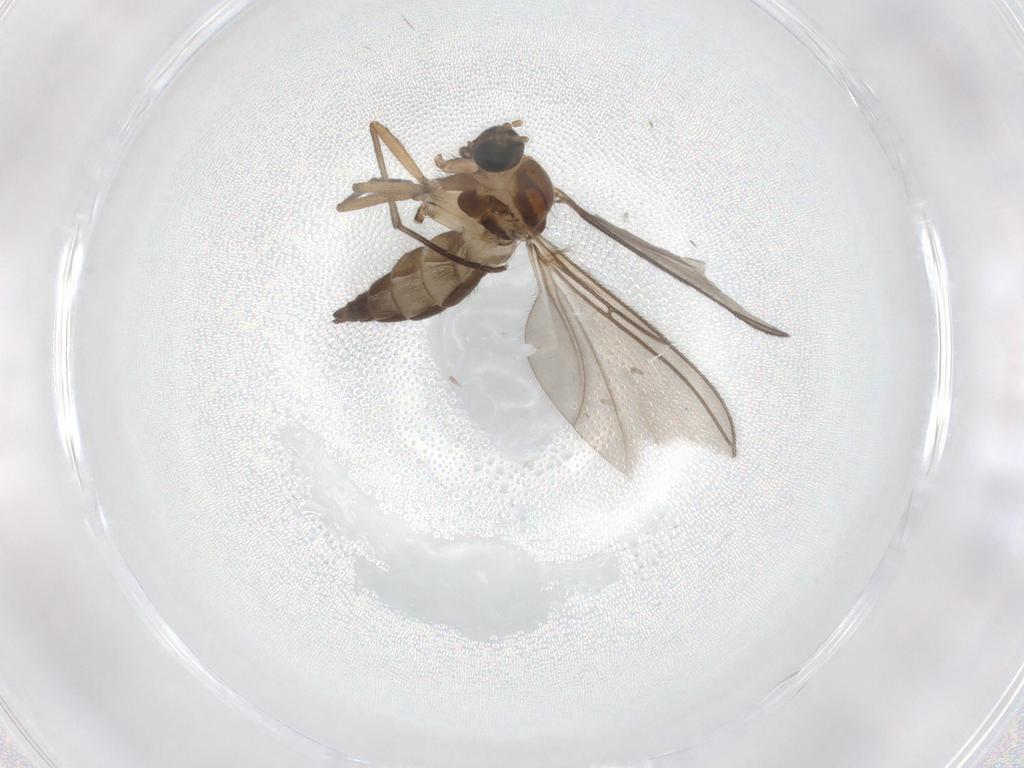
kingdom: Animalia
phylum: Arthropoda
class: Insecta
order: Diptera
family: Sciaridae
